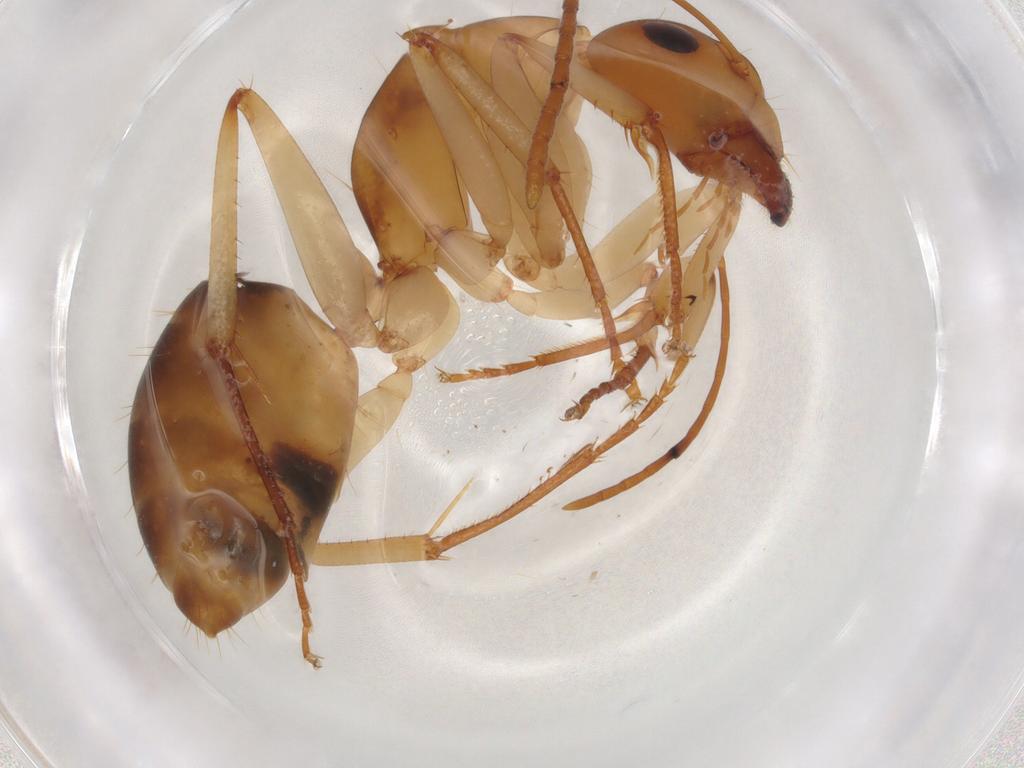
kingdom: Animalia
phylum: Arthropoda
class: Insecta
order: Hymenoptera
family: Formicidae
